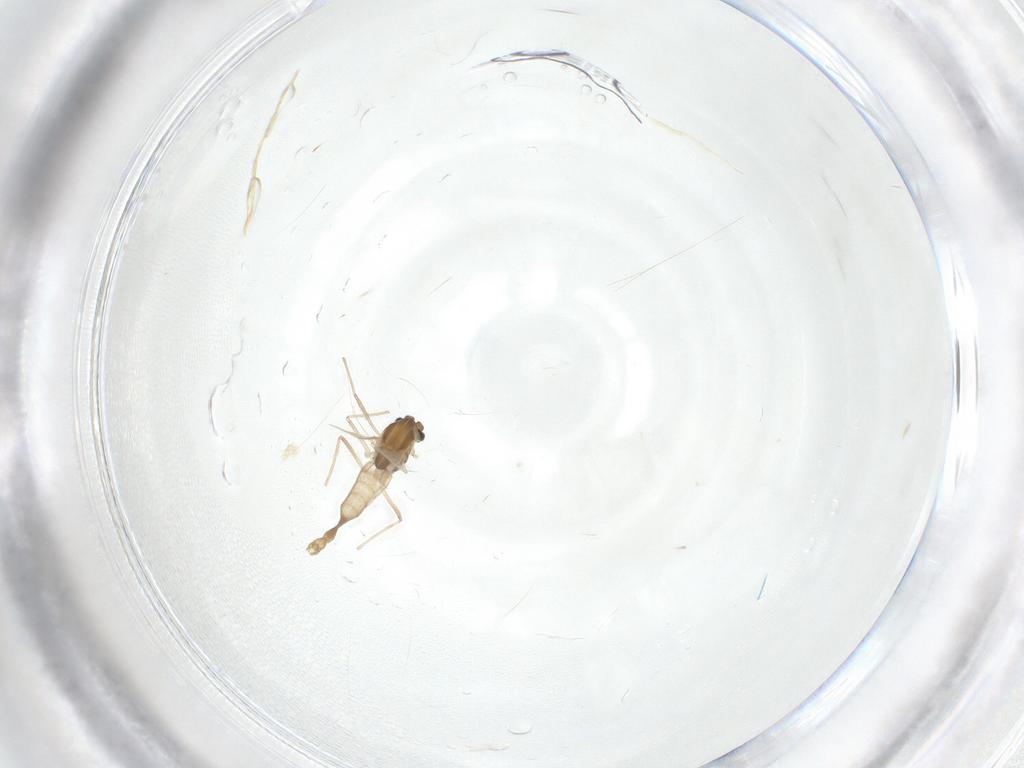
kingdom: Animalia
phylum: Arthropoda
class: Insecta
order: Diptera
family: Chironomidae
